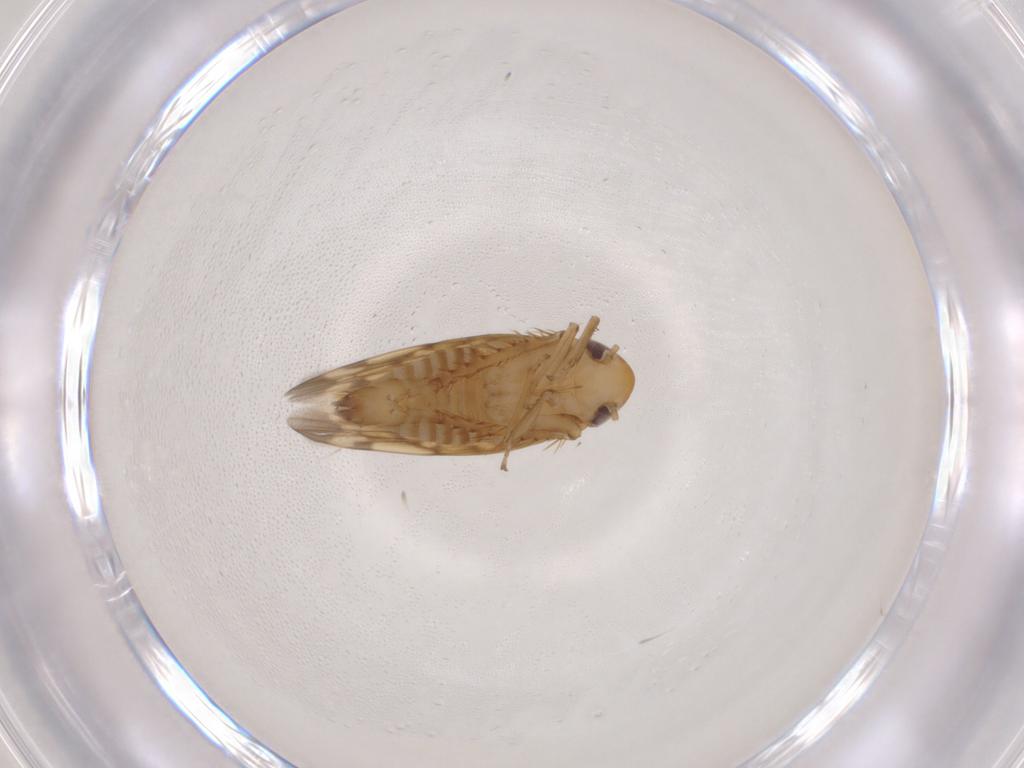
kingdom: Animalia
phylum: Arthropoda
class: Insecta
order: Hemiptera
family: Cicadellidae
